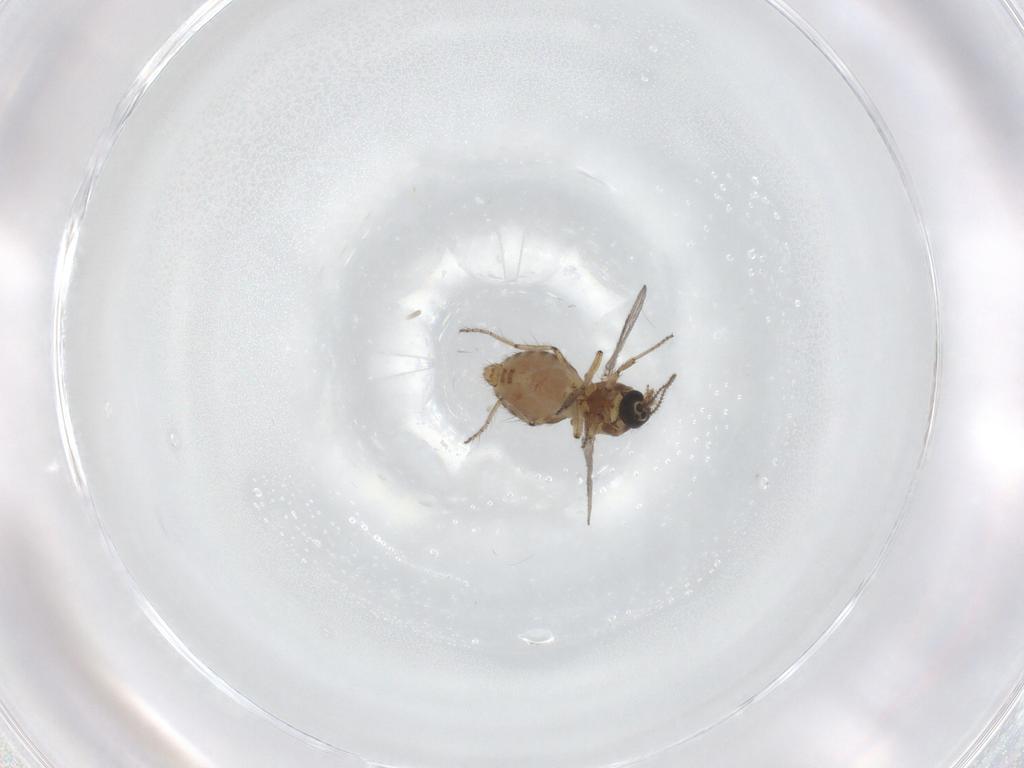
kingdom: Animalia
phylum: Arthropoda
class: Insecta
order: Diptera
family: Ceratopogonidae
